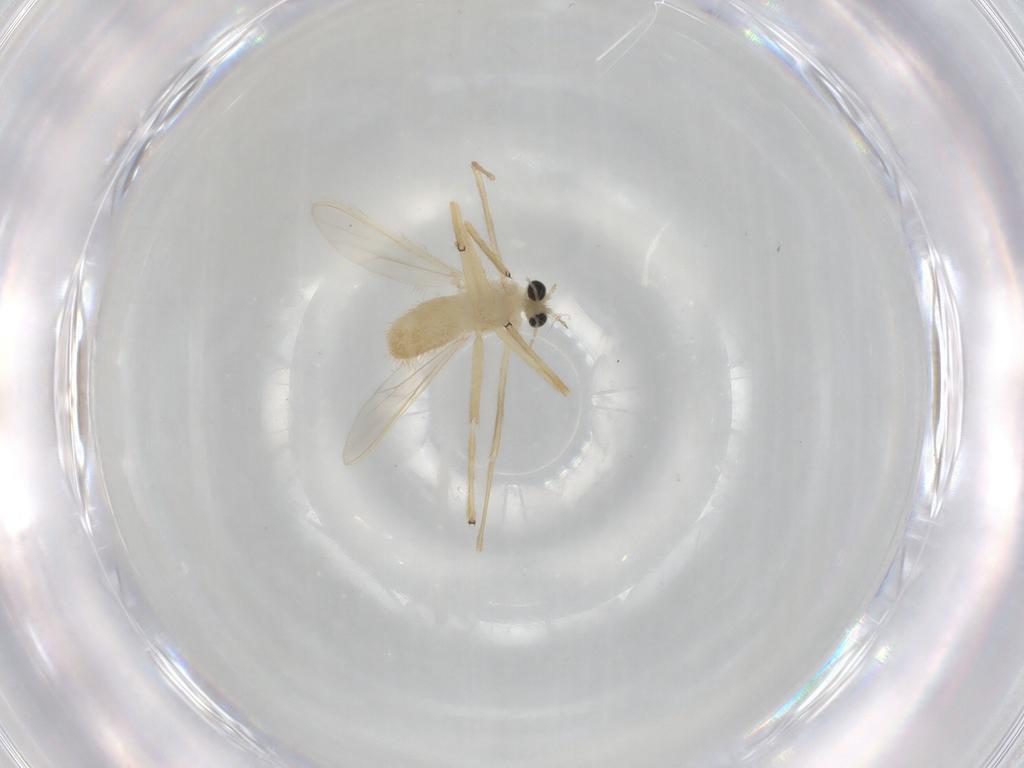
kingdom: Animalia
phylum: Arthropoda
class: Insecta
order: Diptera
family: Chironomidae
